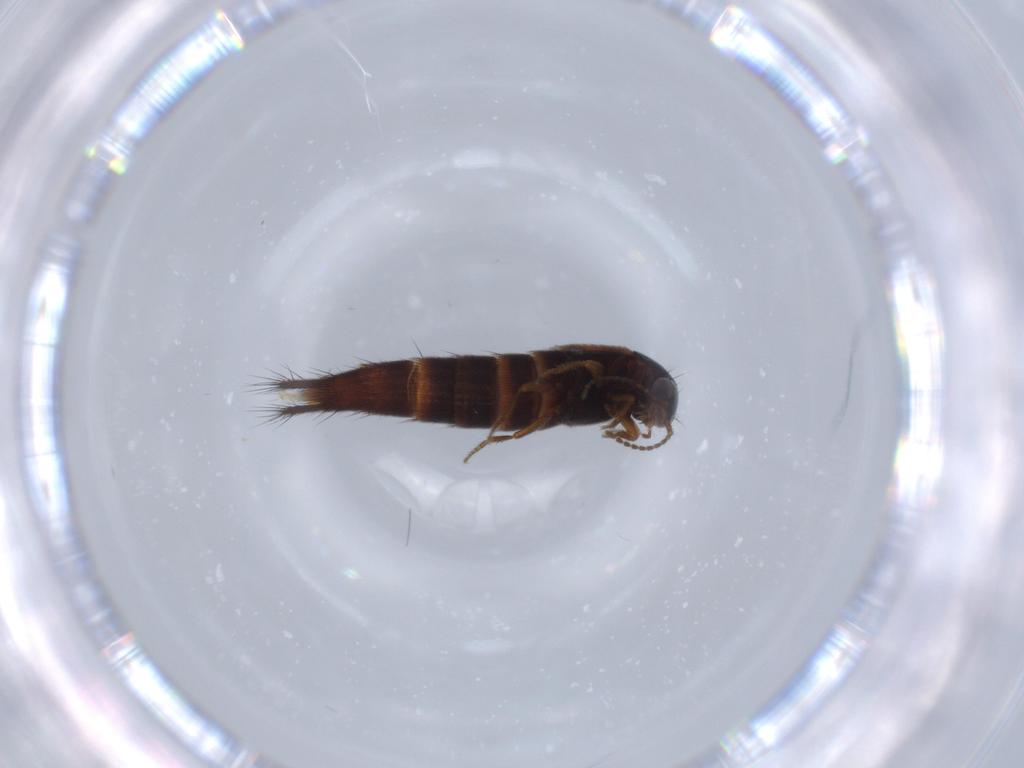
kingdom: Animalia
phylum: Arthropoda
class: Insecta
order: Coleoptera
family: Staphylinidae
